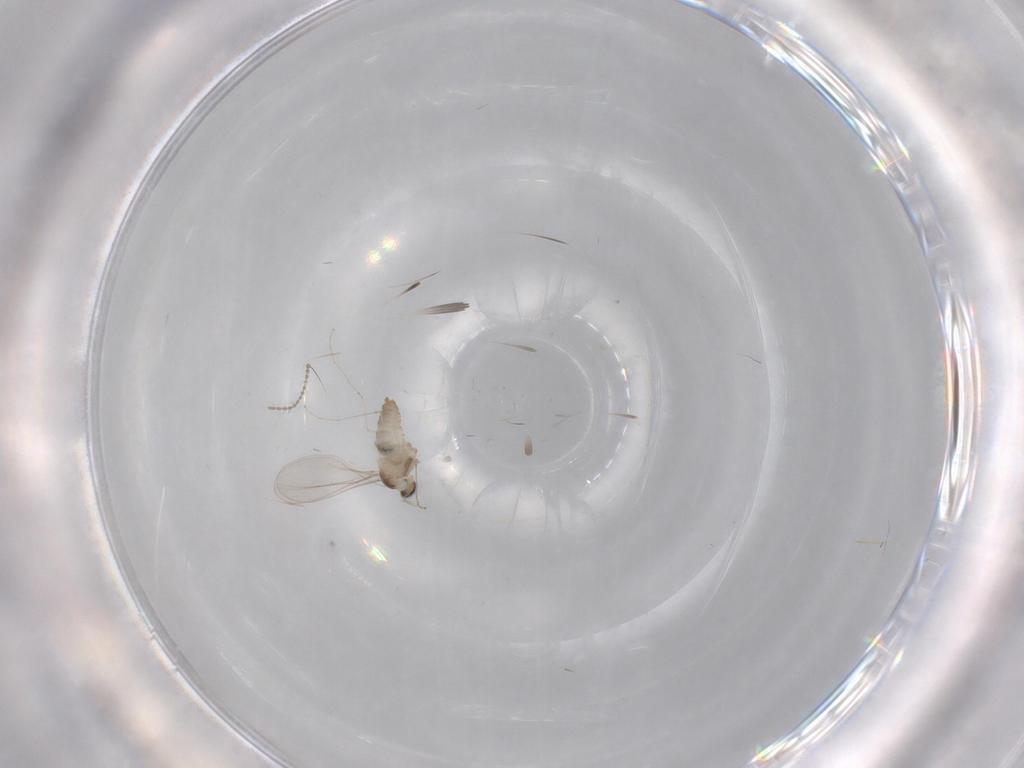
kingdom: Animalia
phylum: Arthropoda
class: Insecta
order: Diptera
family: Ceratopogonidae
